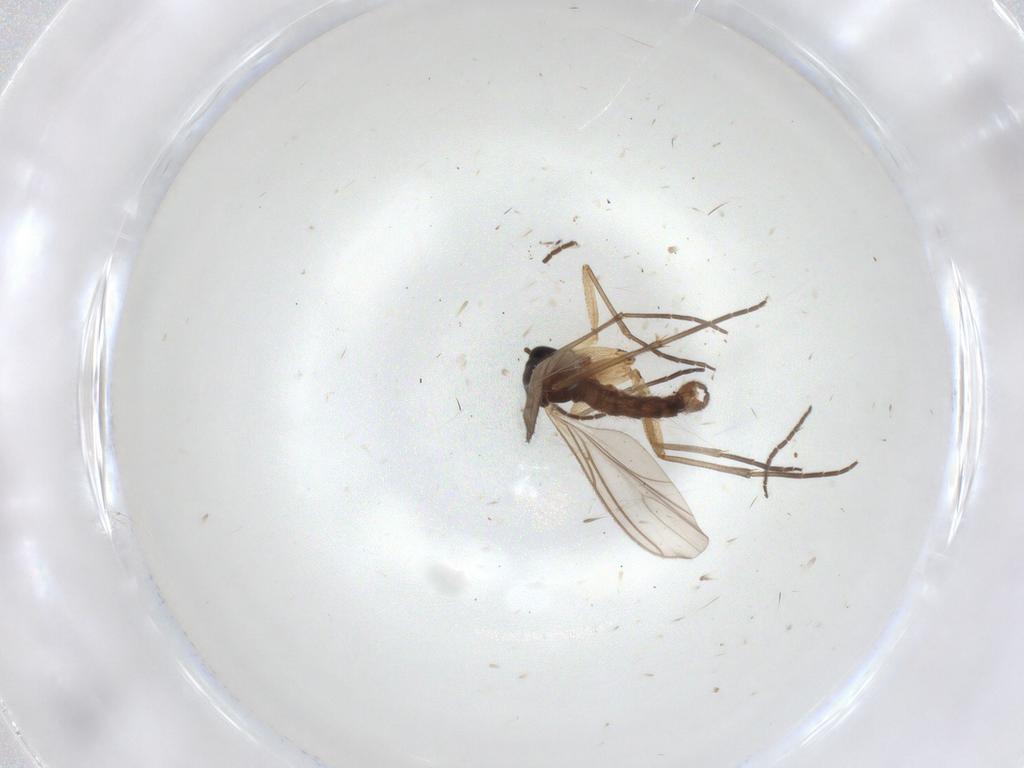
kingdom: Animalia
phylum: Arthropoda
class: Insecta
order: Diptera
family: Sciaridae
